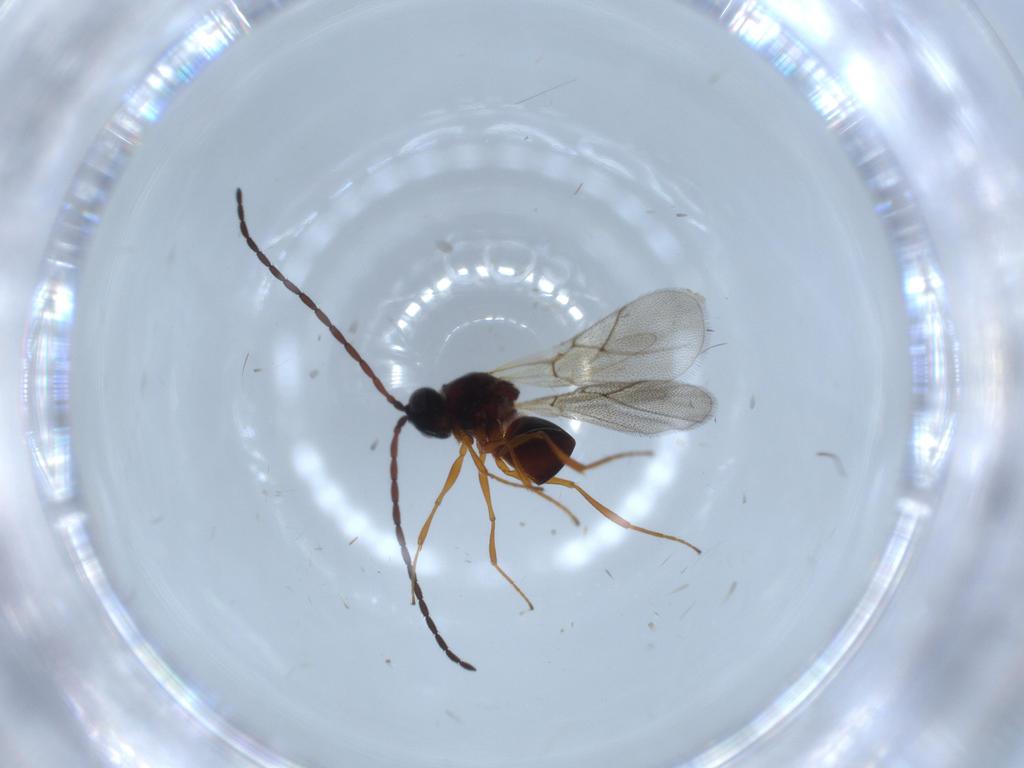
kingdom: Animalia
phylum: Arthropoda
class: Insecta
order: Hymenoptera
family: Figitidae
